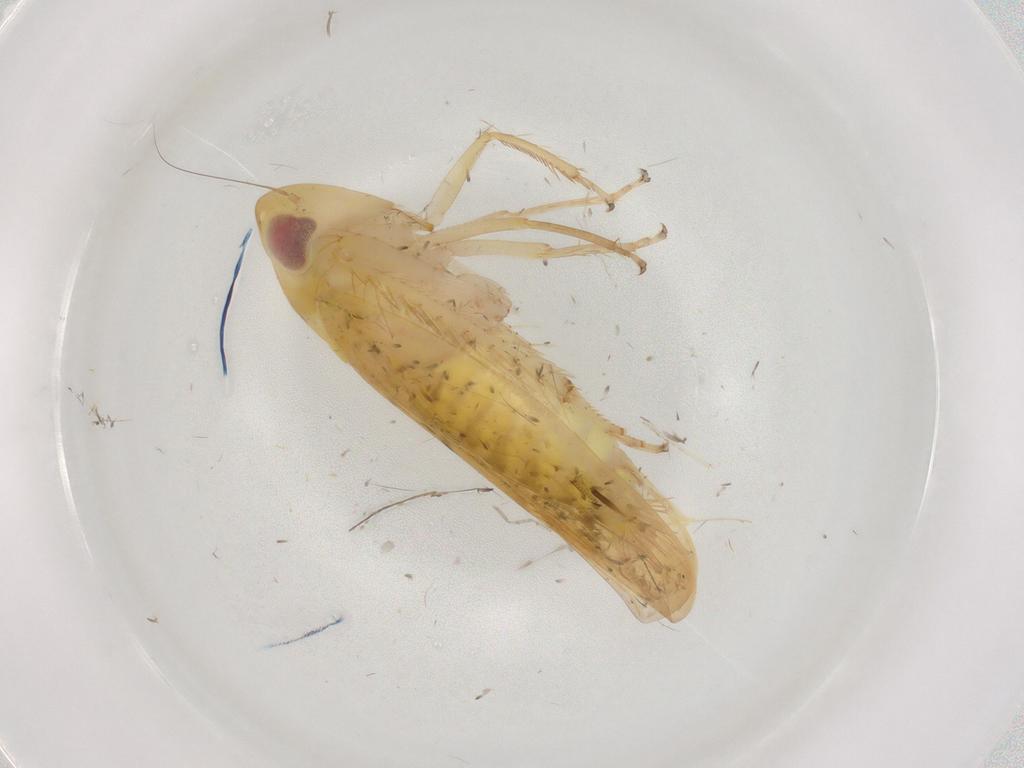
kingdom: Animalia
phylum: Arthropoda
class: Insecta
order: Hemiptera
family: Cicadellidae
